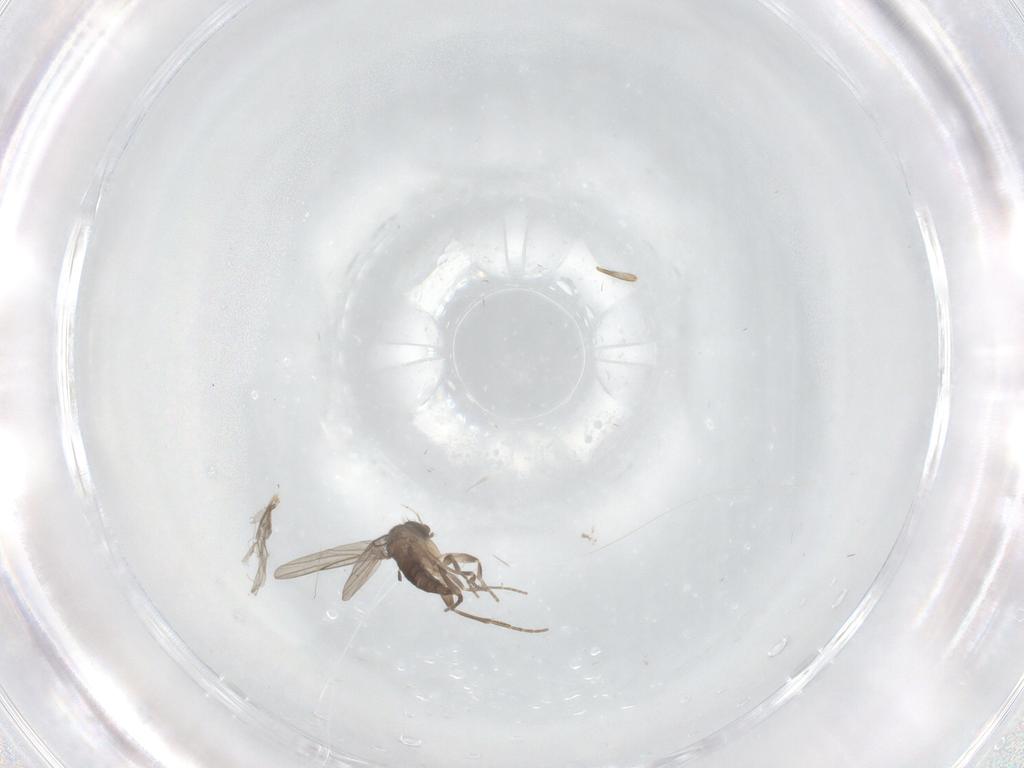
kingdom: Animalia
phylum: Arthropoda
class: Insecta
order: Diptera
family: Phoridae
